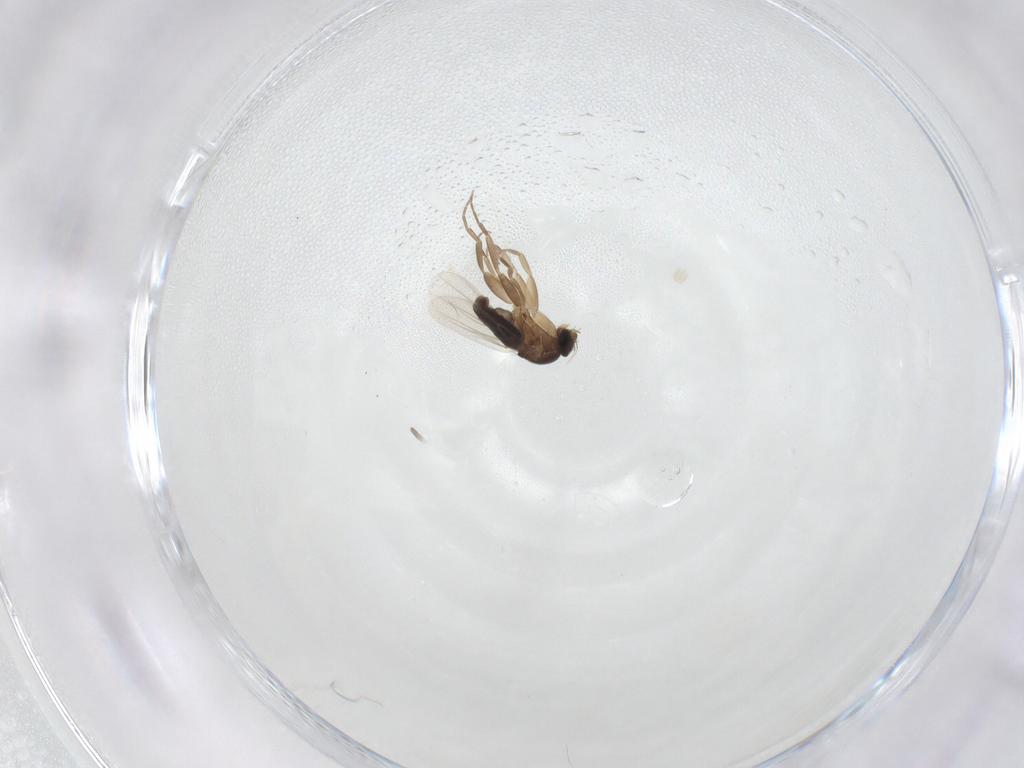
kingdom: Animalia
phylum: Arthropoda
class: Insecta
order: Diptera
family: Phoridae
